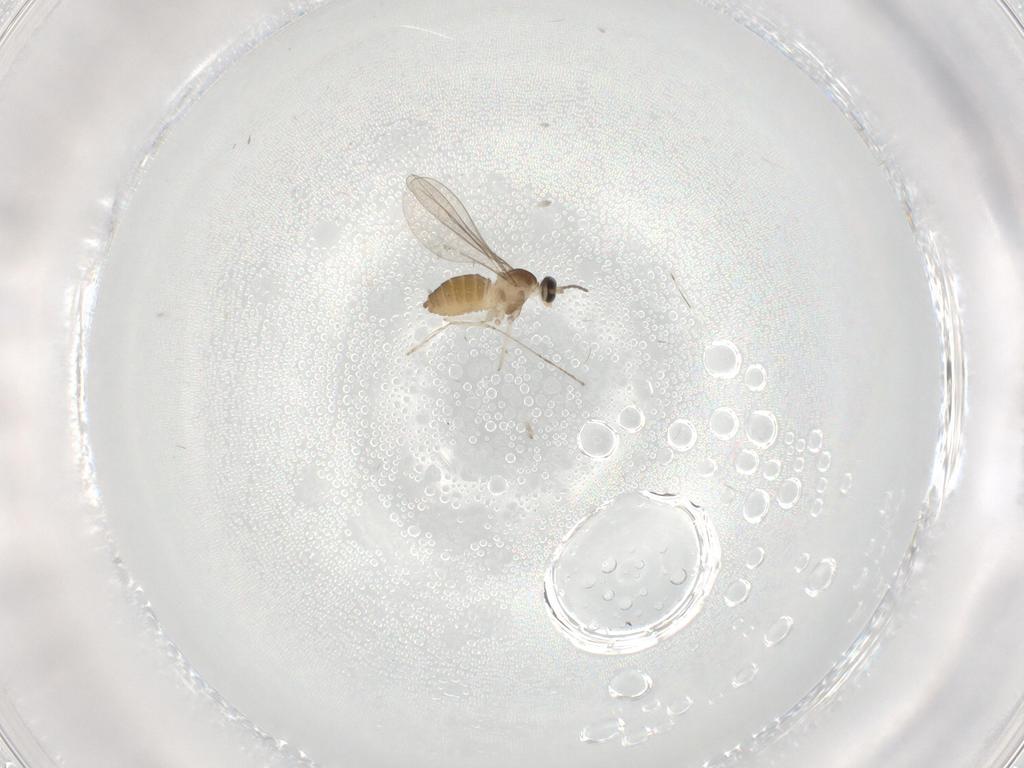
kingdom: Animalia
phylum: Arthropoda
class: Insecta
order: Diptera
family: Cecidomyiidae
